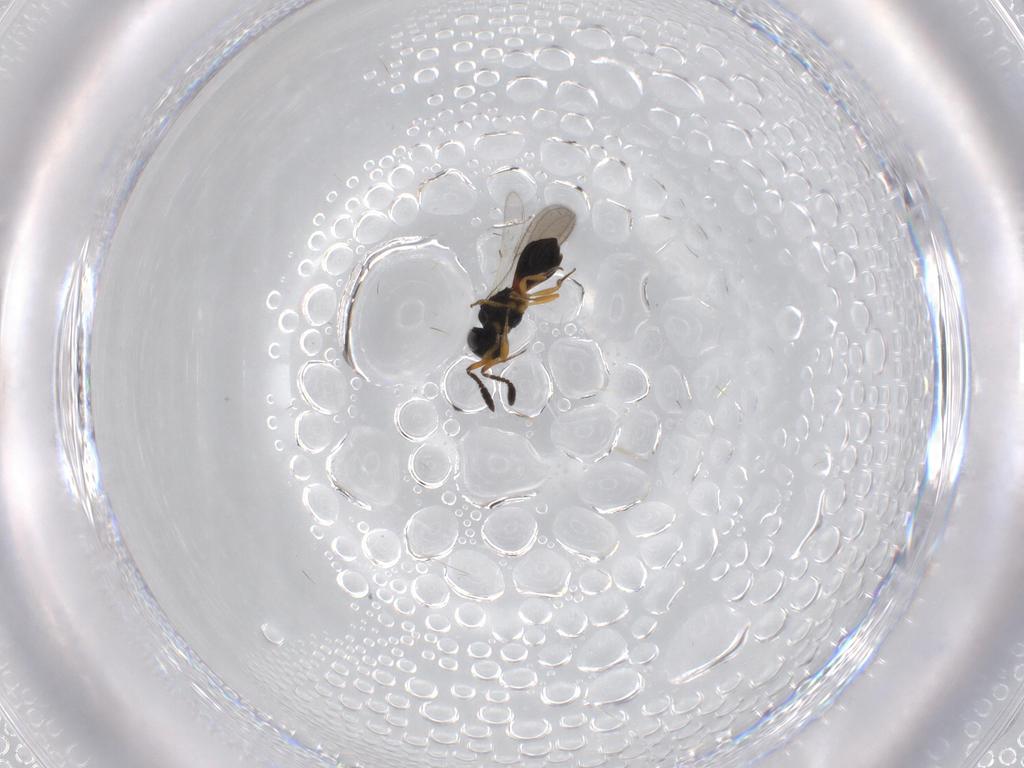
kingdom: Animalia
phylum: Arthropoda
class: Insecta
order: Hymenoptera
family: Scelionidae
